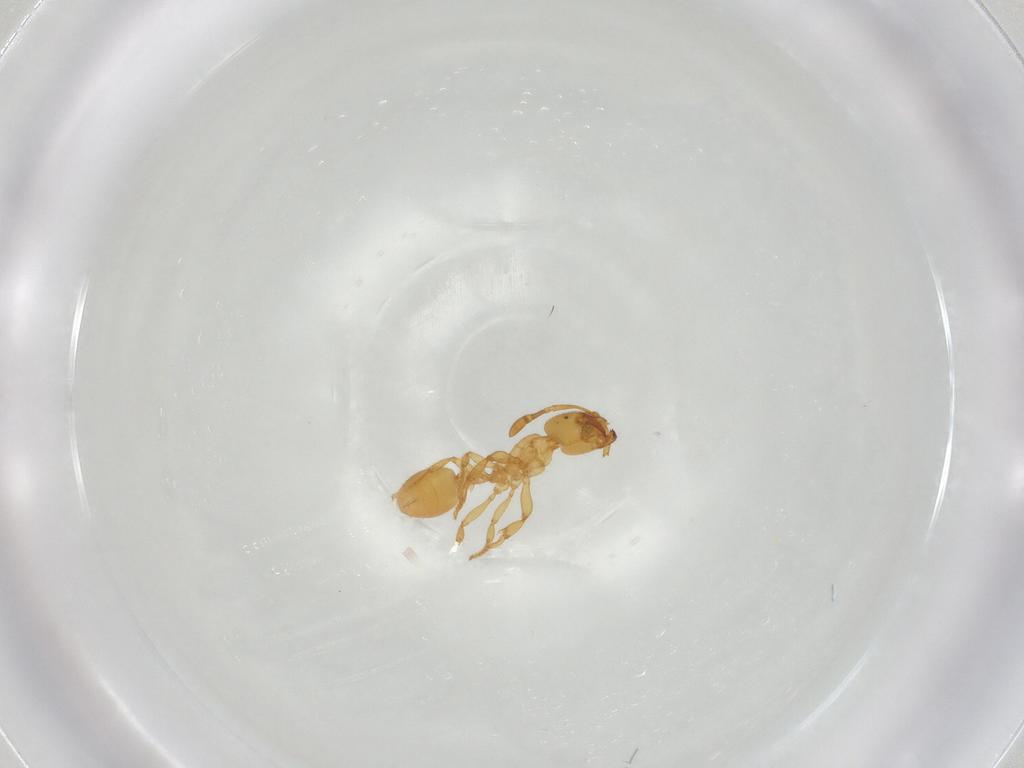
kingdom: Animalia
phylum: Arthropoda
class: Insecta
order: Hymenoptera
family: Formicidae
